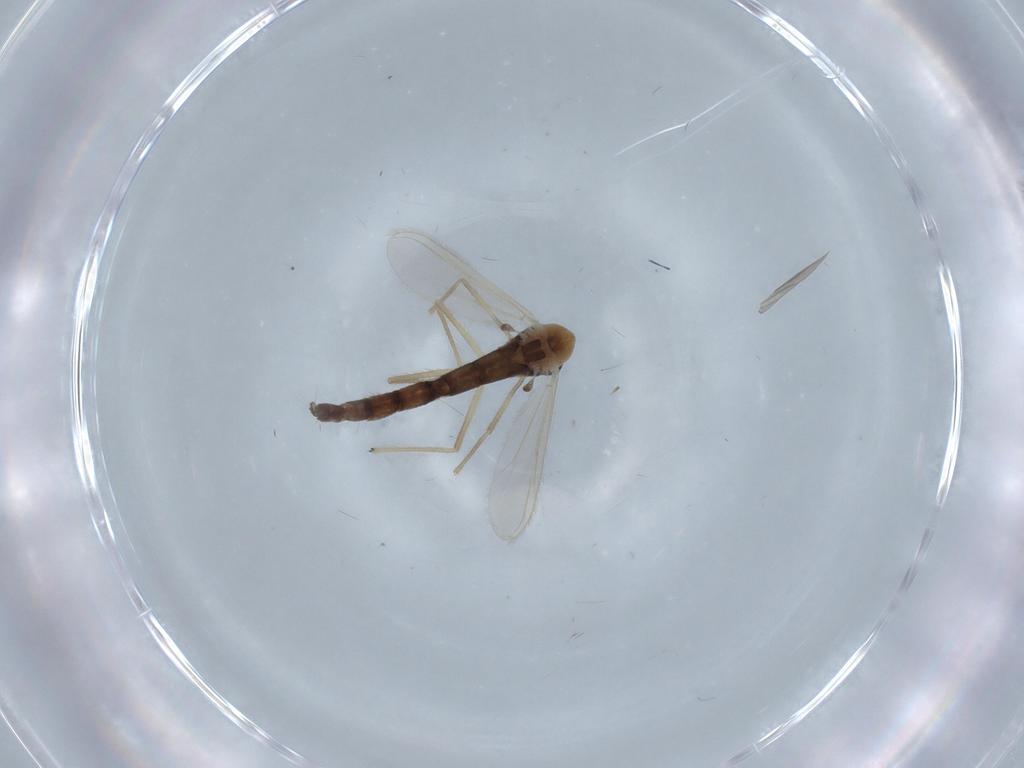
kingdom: Animalia
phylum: Arthropoda
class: Insecta
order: Diptera
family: Chironomidae
